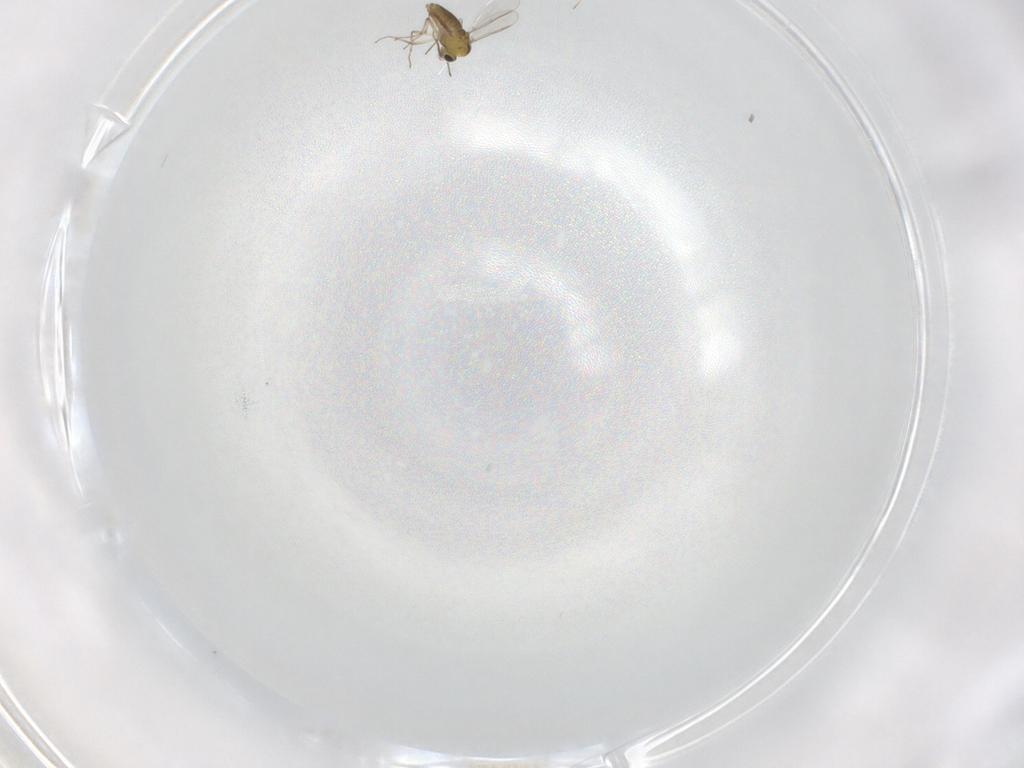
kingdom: Animalia
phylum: Arthropoda
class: Insecta
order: Diptera
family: Chironomidae
